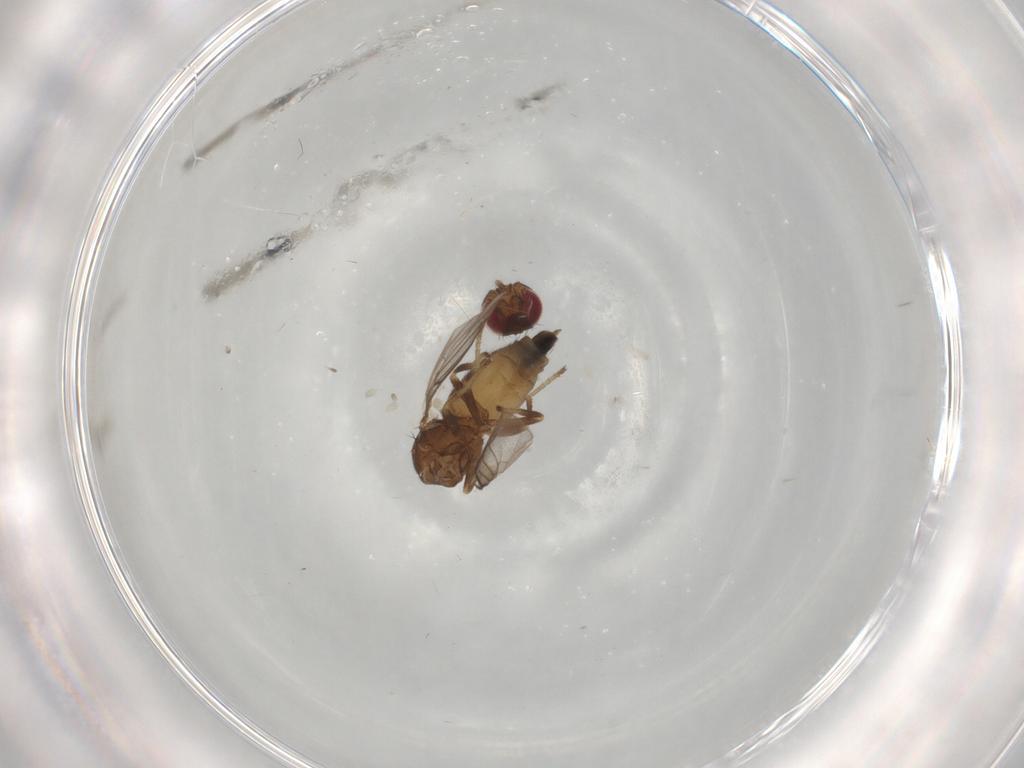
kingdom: Animalia
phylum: Arthropoda
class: Insecta
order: Diptera
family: Chloropidae
